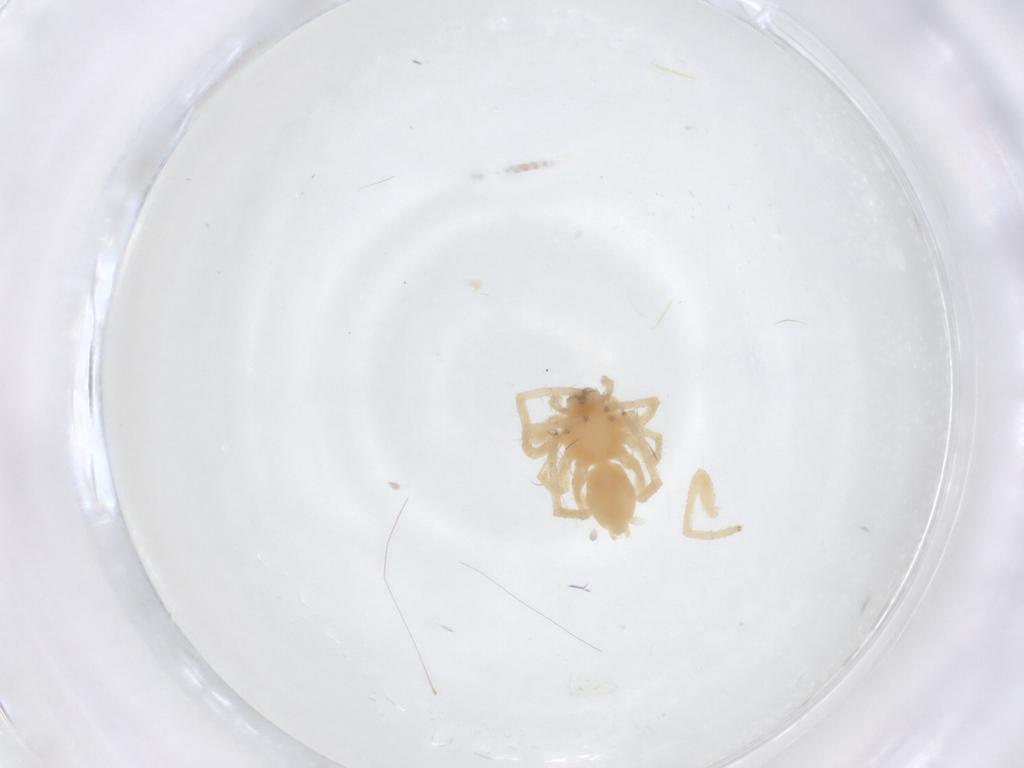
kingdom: Animalia
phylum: Arthropoda
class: Arachnida
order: Araneae
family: Anyphaenidae
